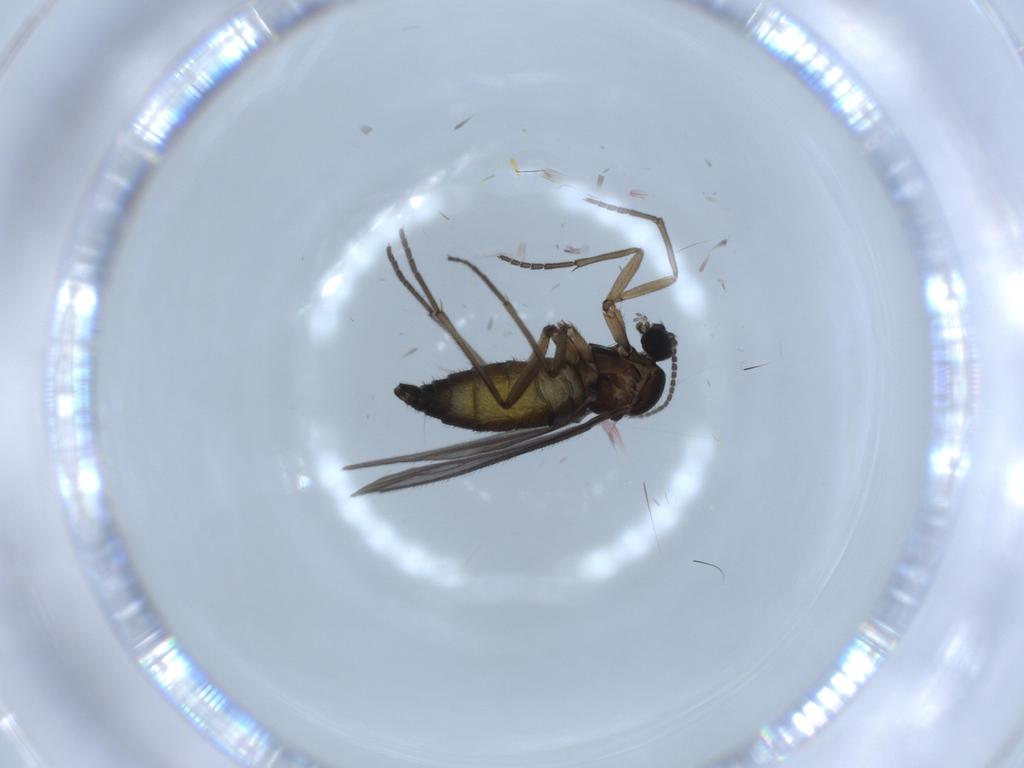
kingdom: Animalia
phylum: Arthropoda
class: Insecta
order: Diptera
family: Sciaridae
